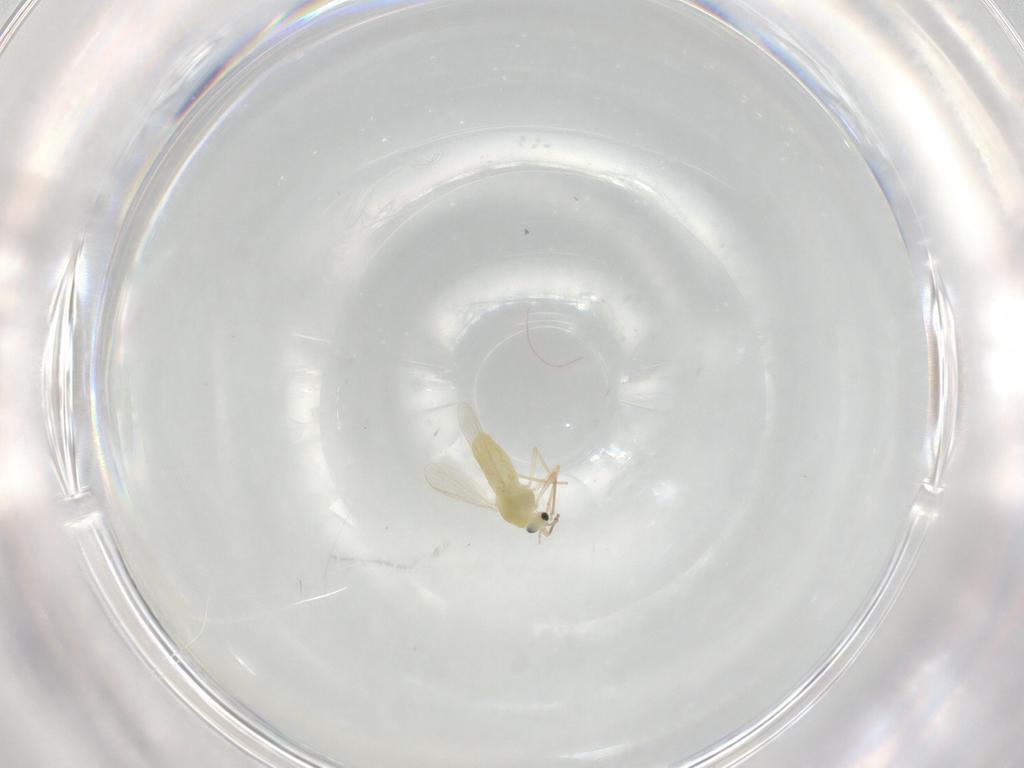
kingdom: Animalia
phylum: Arthropoda
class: Insecta
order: Diptera
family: Chironomidae
